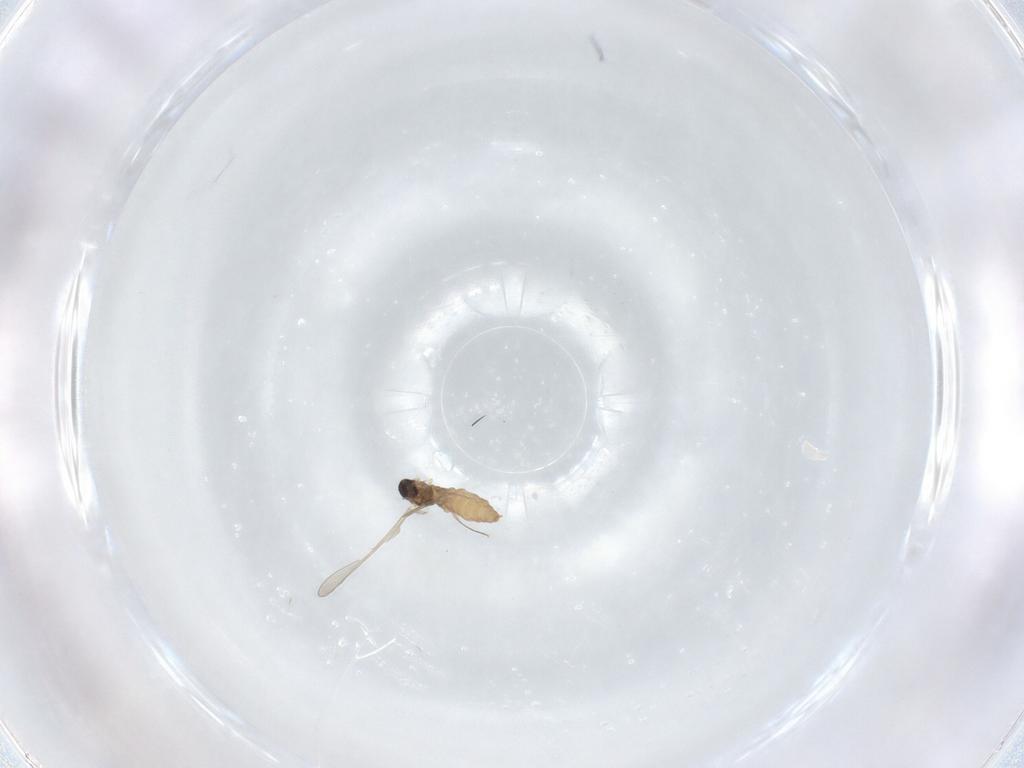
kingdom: Animalia
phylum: Arthropoda
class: Insecta
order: Diptera
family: Cecidomyiidae
